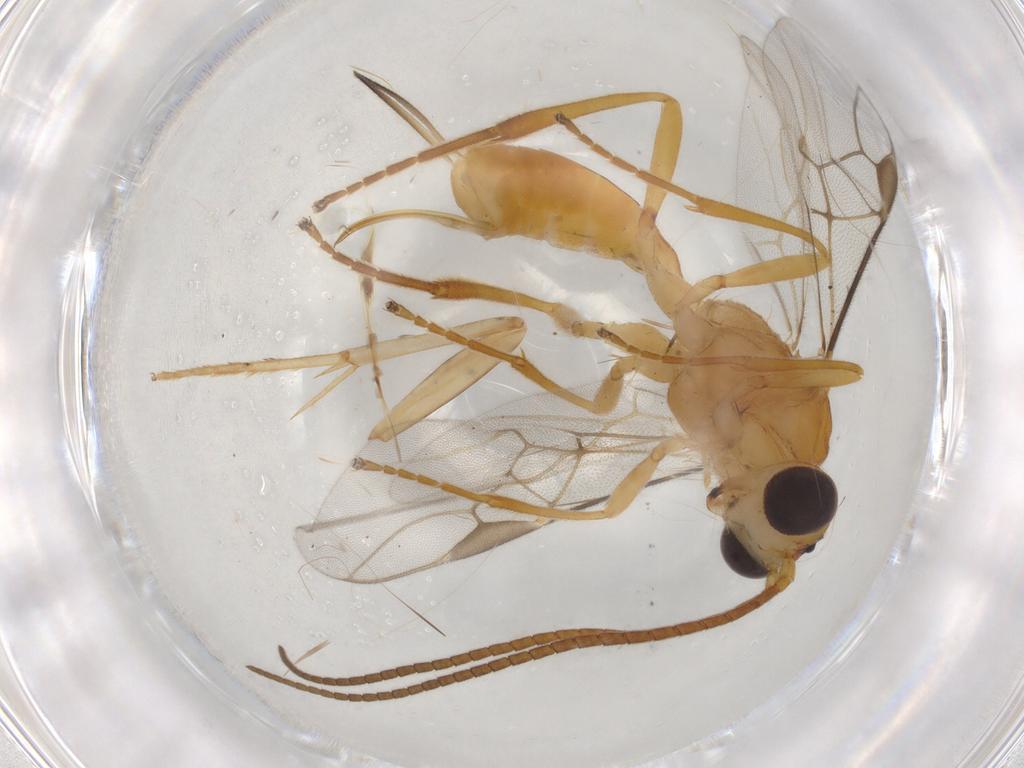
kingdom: Animalia
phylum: Arthropoda
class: Insecta
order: Hymenoptera
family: Braconidae
